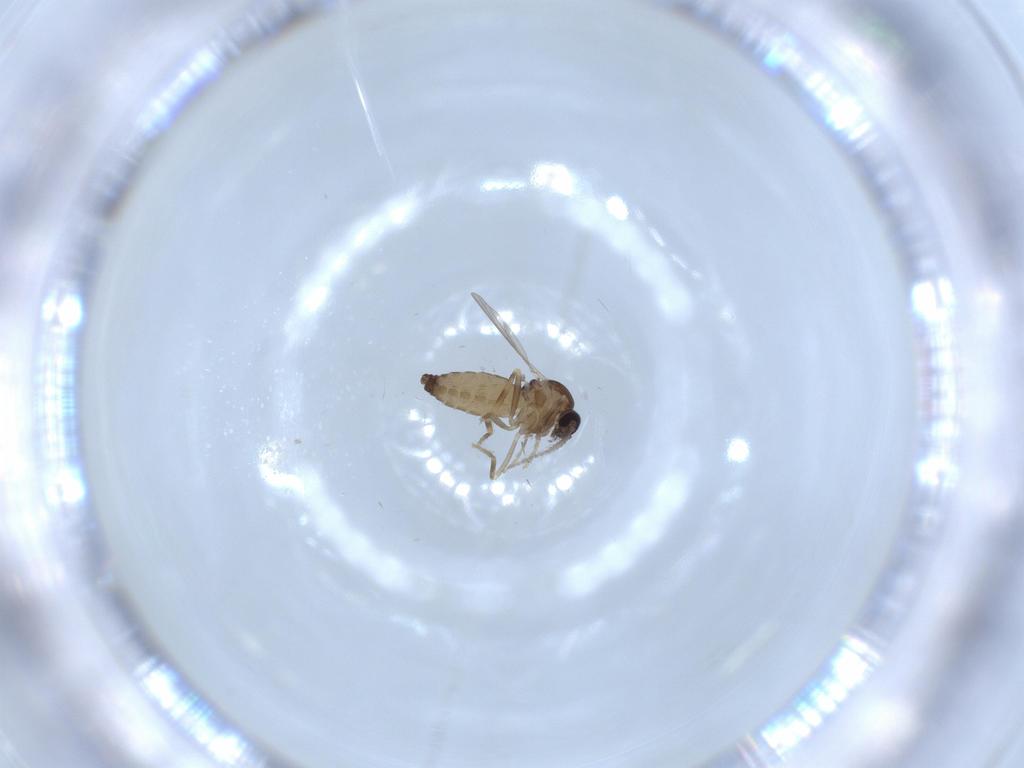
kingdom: Animalia
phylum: Arthropoda
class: Insecta
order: Diptera
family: Ceratopogonidae
